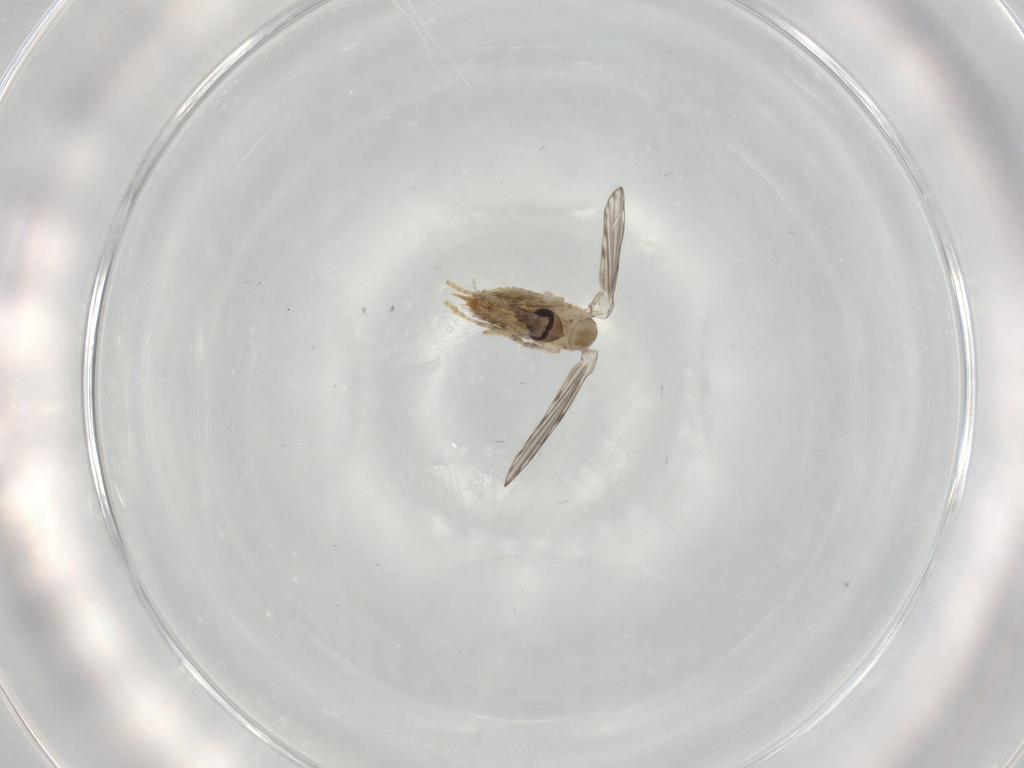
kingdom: Animalia
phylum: Arthropoda
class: Insecta
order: Diptera
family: Psychodidae
